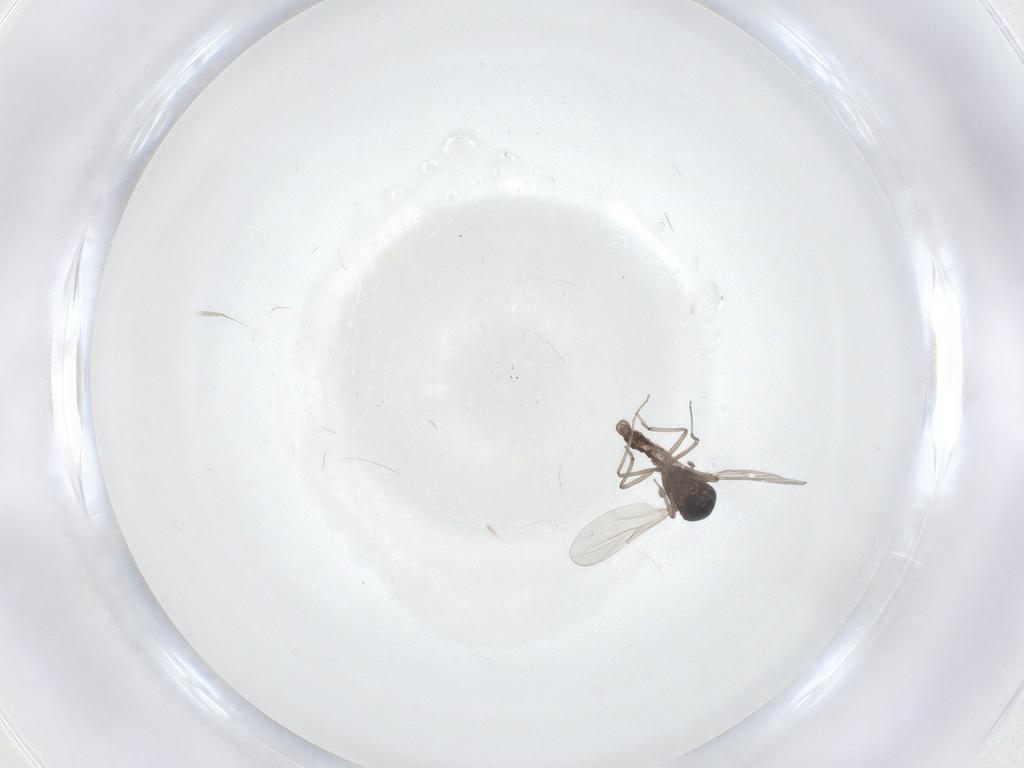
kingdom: Animalia
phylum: Arthropoda
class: Insecta
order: Diptera
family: Ceratopogonidae
